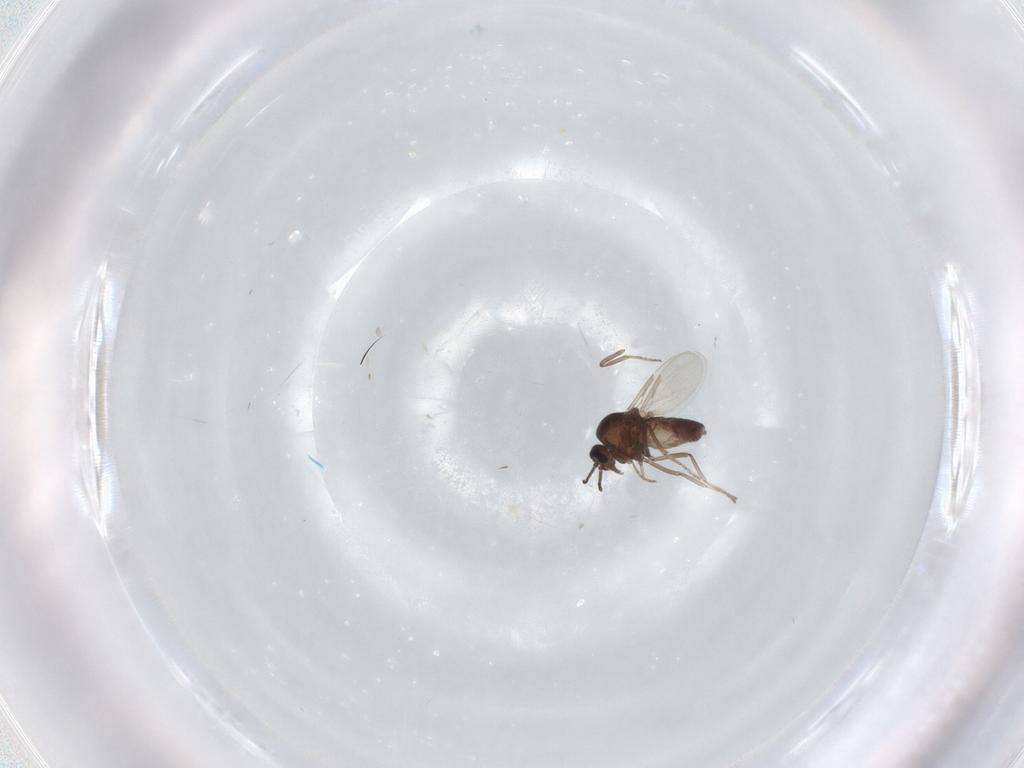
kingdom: Animalia
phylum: Arthropoda
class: Insecta
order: Diptera
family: Ceratopogonidae
